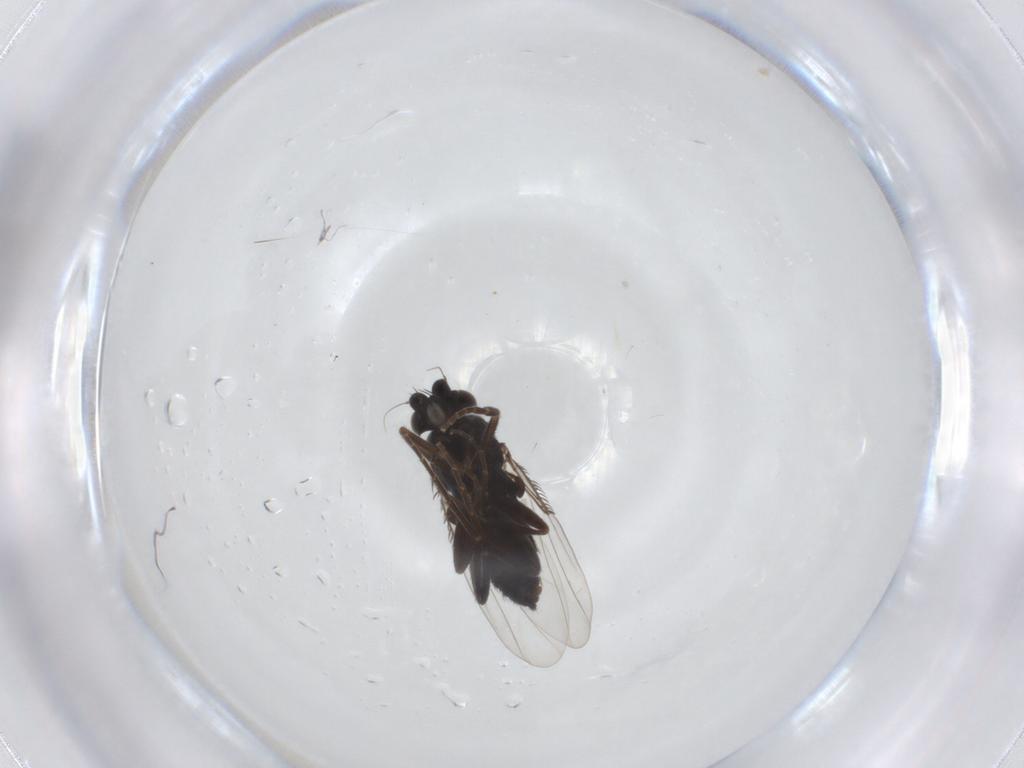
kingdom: Animalia
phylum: Arthropoda
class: Insecta
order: Diptera
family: Phoridae
